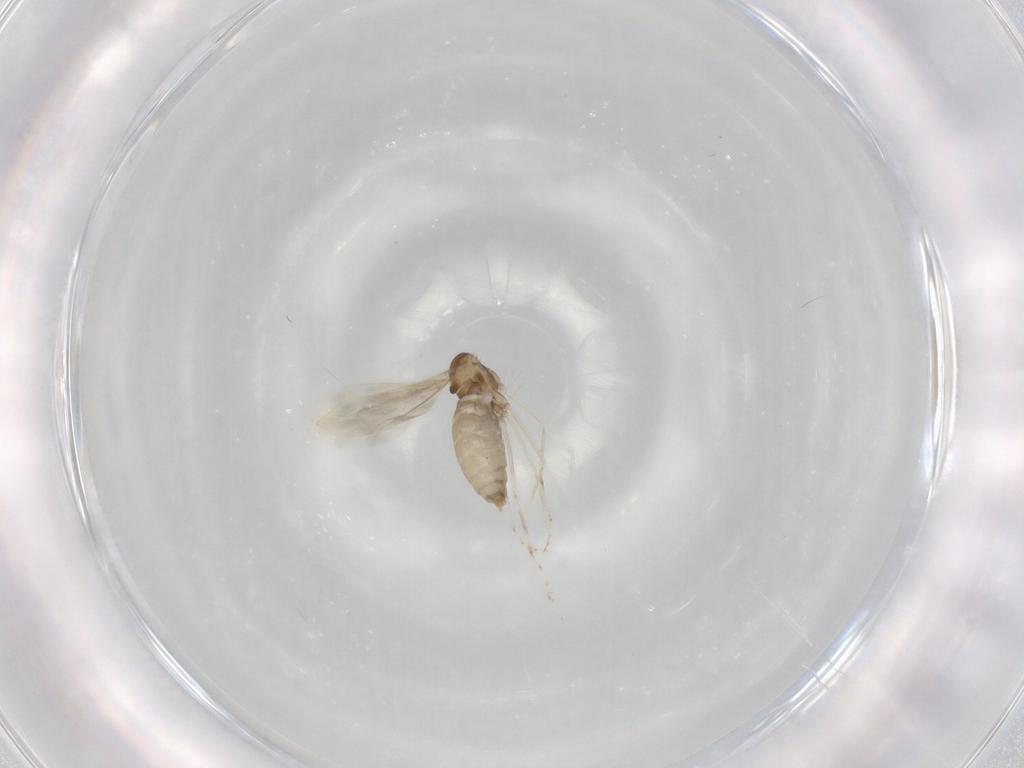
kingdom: Animalia
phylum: Arthropoda
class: Insecta
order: Diptera
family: Cecidomyiidae
